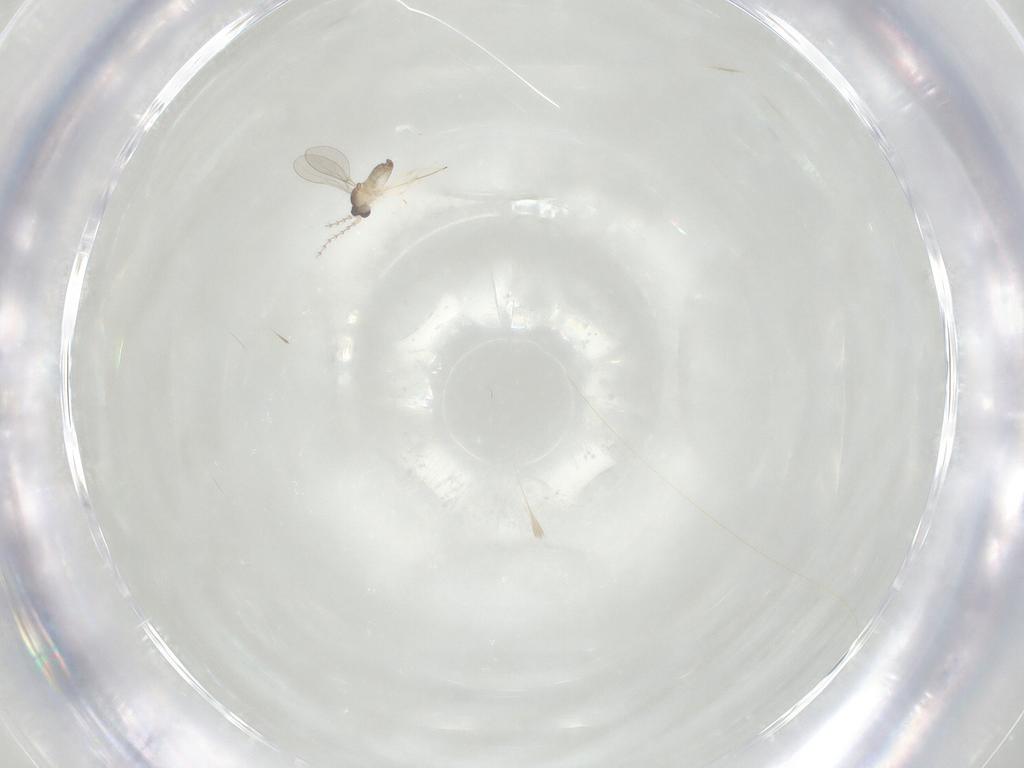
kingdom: Animalia
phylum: Arthropoda
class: Insecta
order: Diptera
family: Cecidomyiidae
